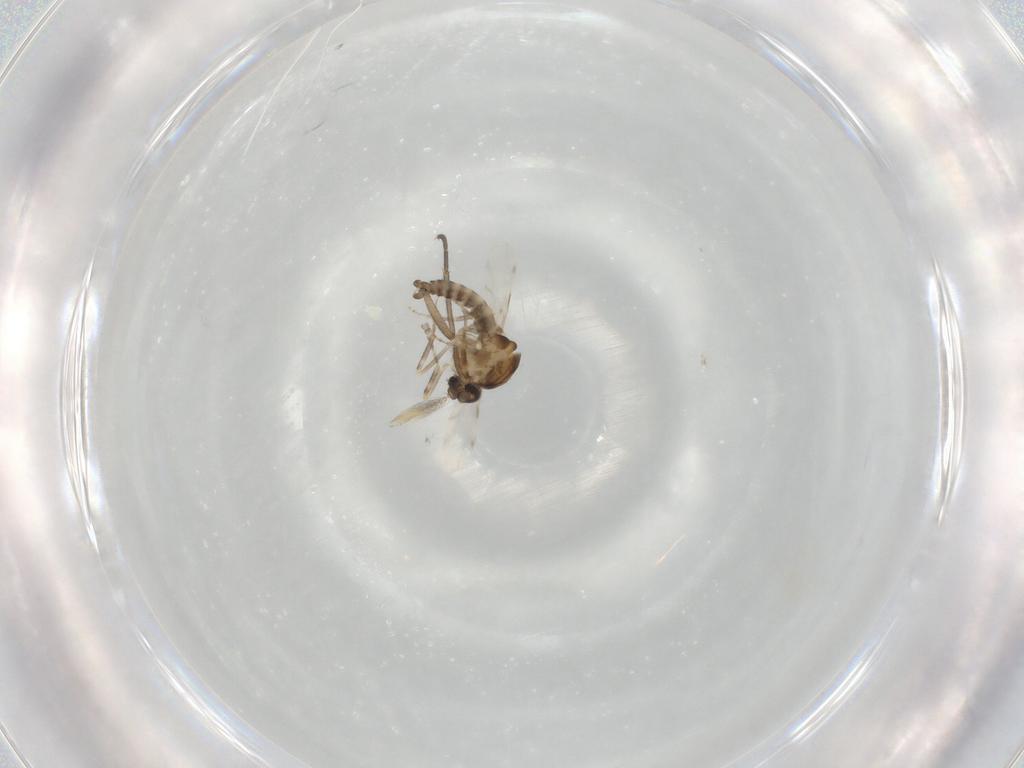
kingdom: Animalia
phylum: Arthropoda
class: Insecta
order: Diptera
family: Ceratopogonidae
